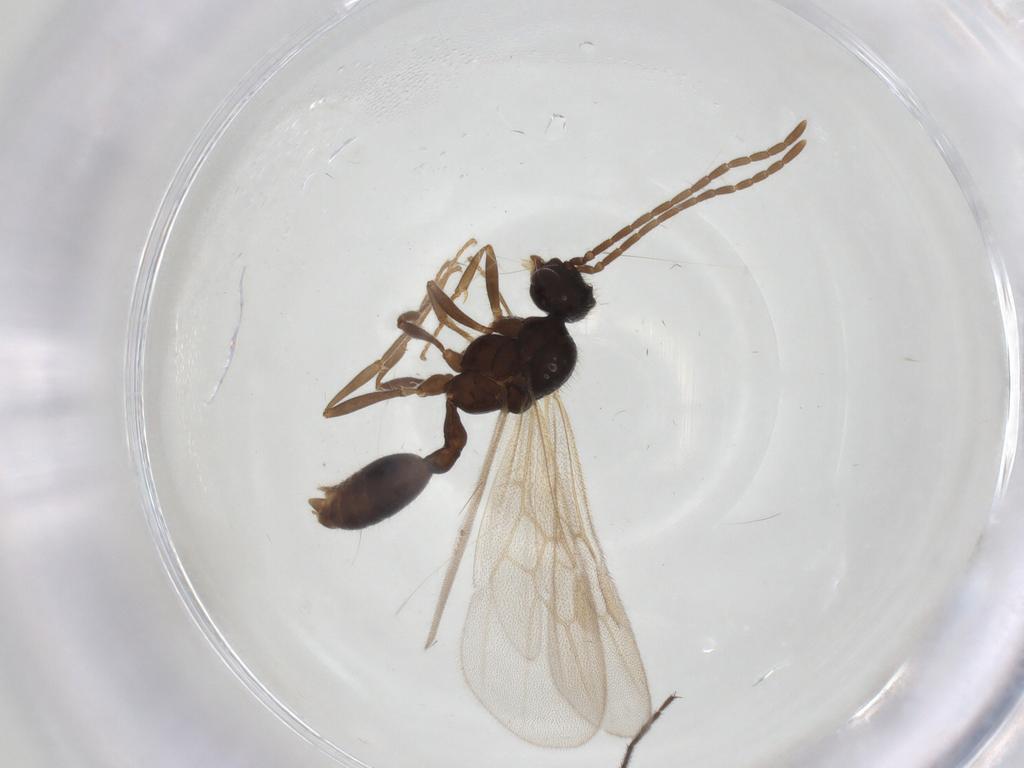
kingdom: Animalia
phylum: Arthropoda
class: Insecta
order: Hymenoptera
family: Formicidae
